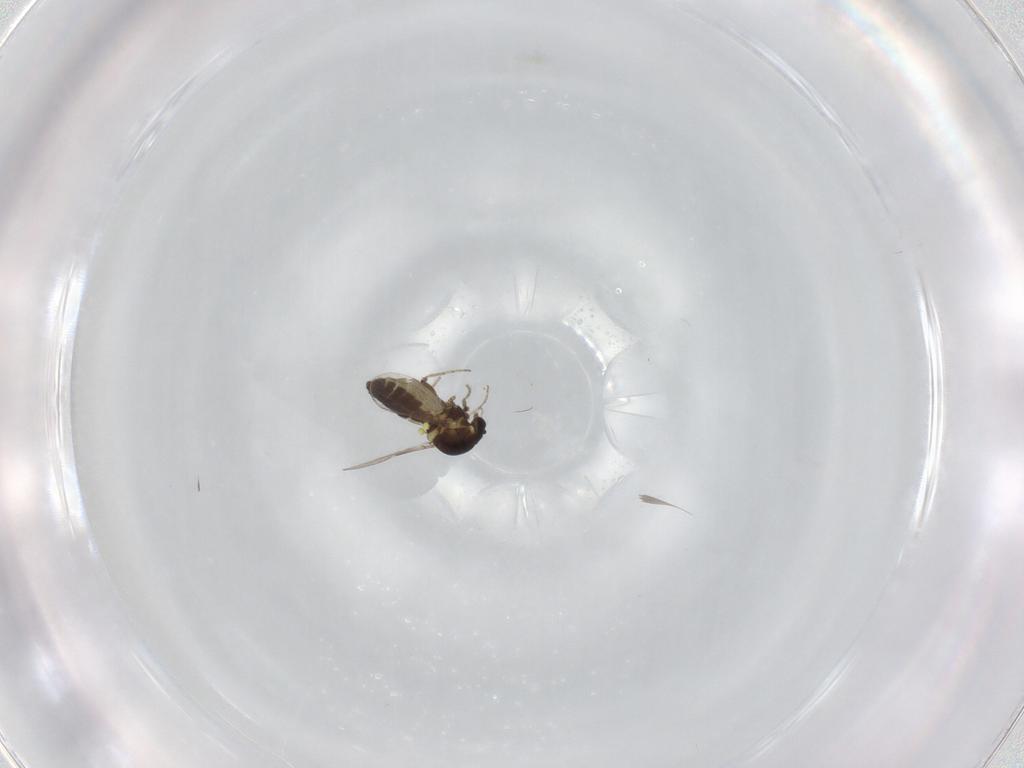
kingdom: Animalia
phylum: Arthropoda
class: Insecta
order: Diptera
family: Ceratopogonidae
